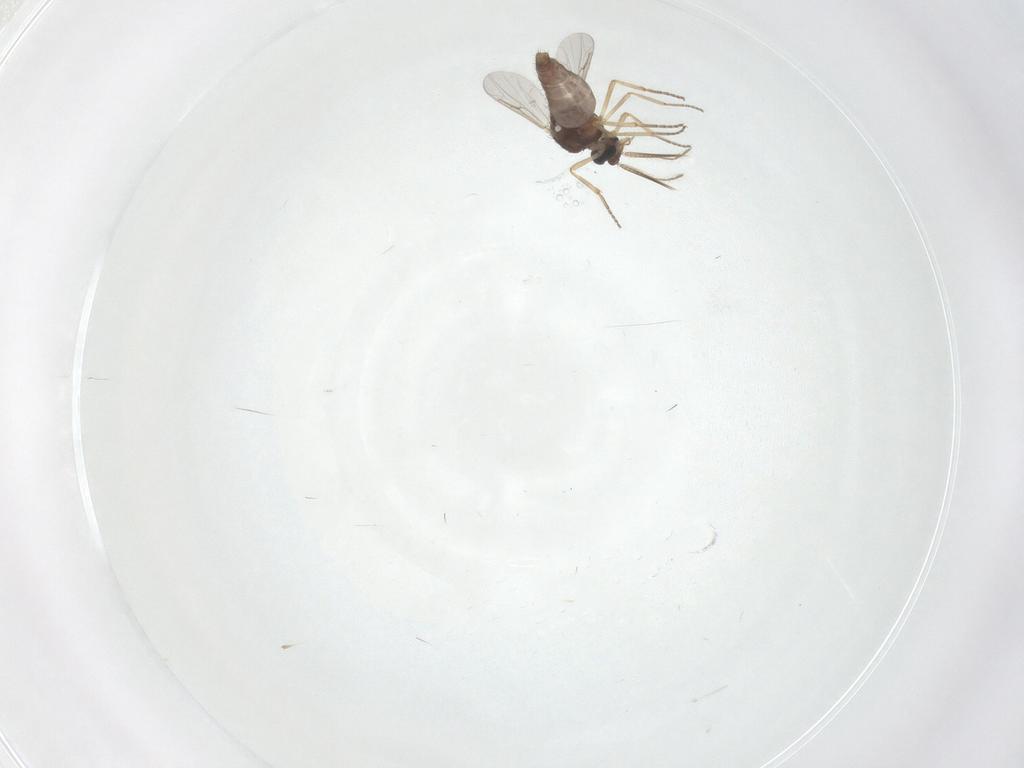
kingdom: Animalia
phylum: Arthropoda
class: Insecta
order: Diptera
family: Ceratopogonidae
